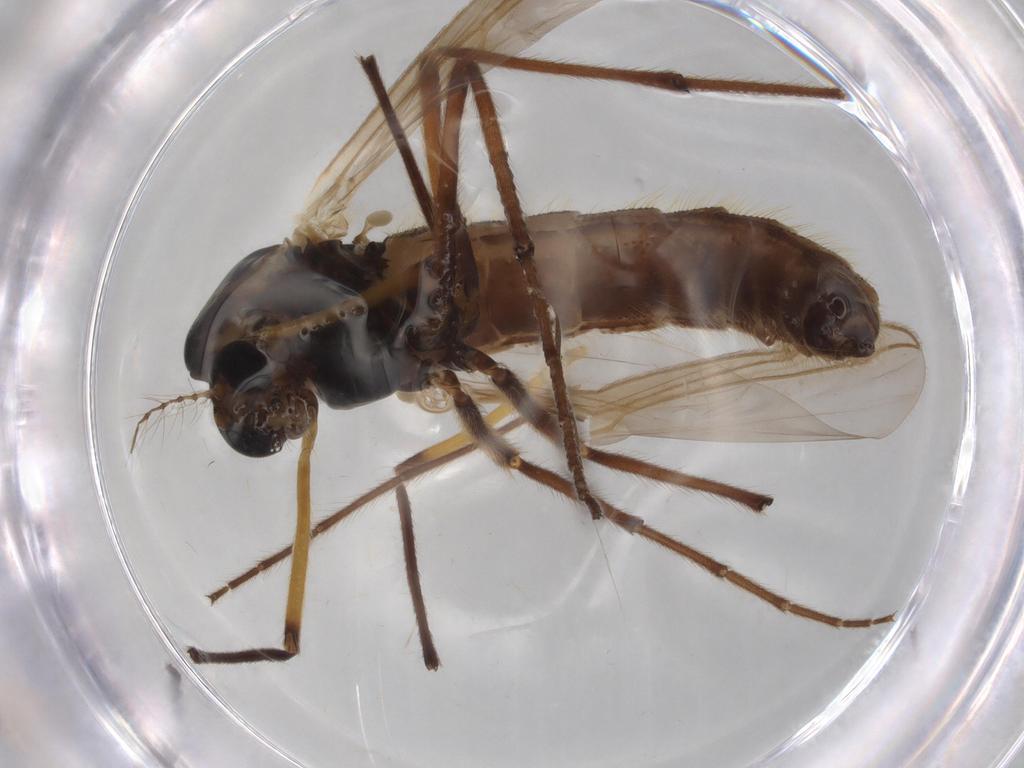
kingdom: Animalia
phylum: Arthropoda
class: Insecta
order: Diptera
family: Chironomidae
